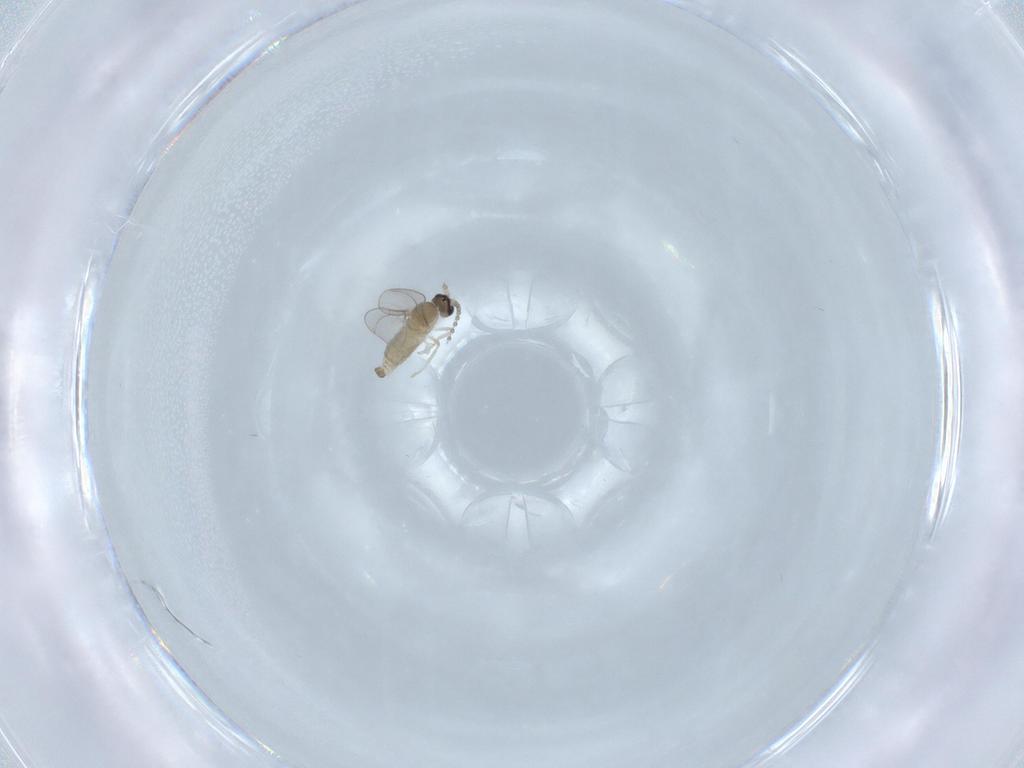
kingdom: Animalia
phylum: Arthropoda
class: Insecta
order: Diptera
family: Cecidomyiidae
